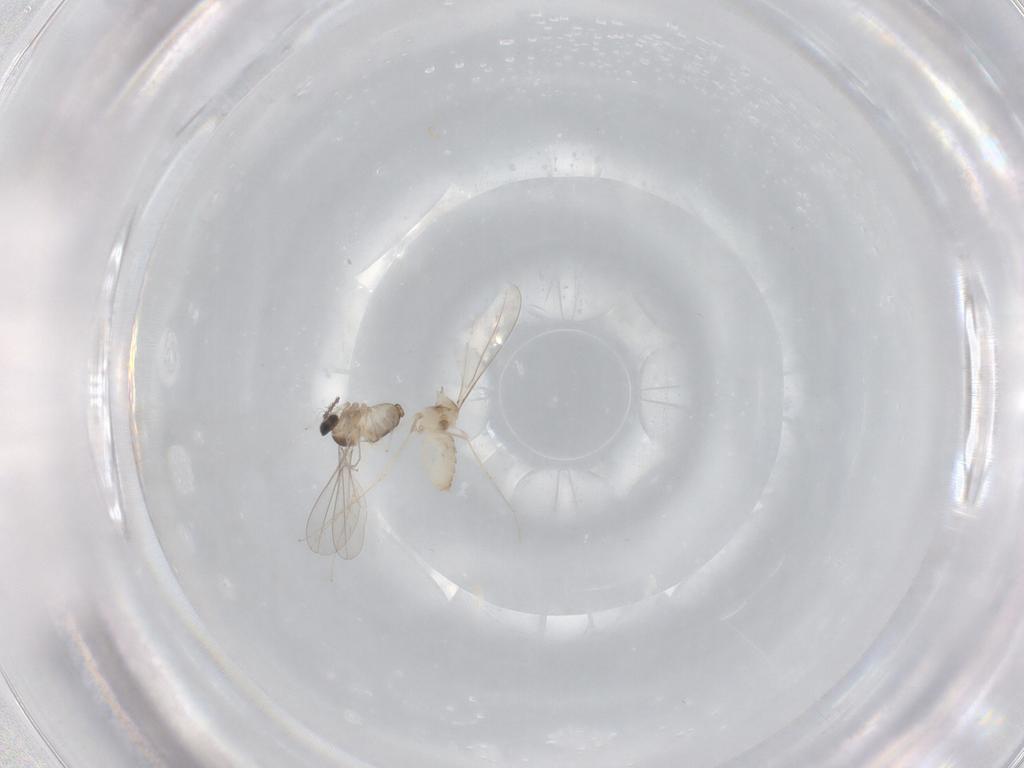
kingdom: Animalia
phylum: Arthropoda
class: Insecta
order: Diptera
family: Cecidomyiidae
